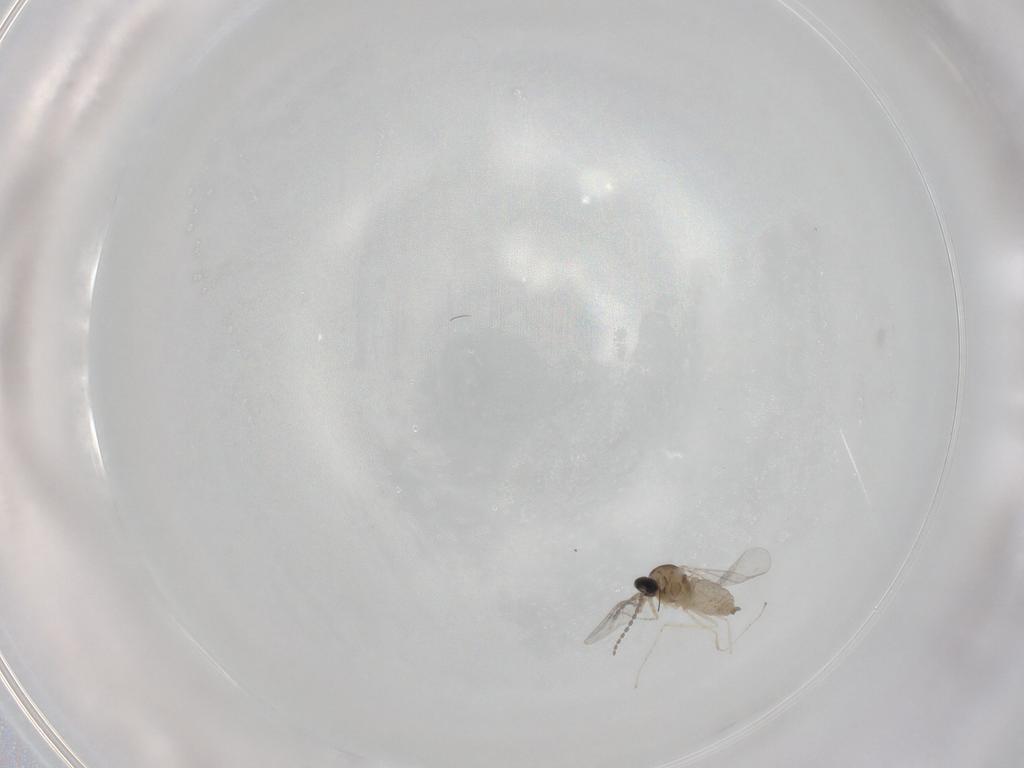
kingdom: Animalia
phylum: Arthropoda
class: Insecta
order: Diptera
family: Cecidomyiidae
